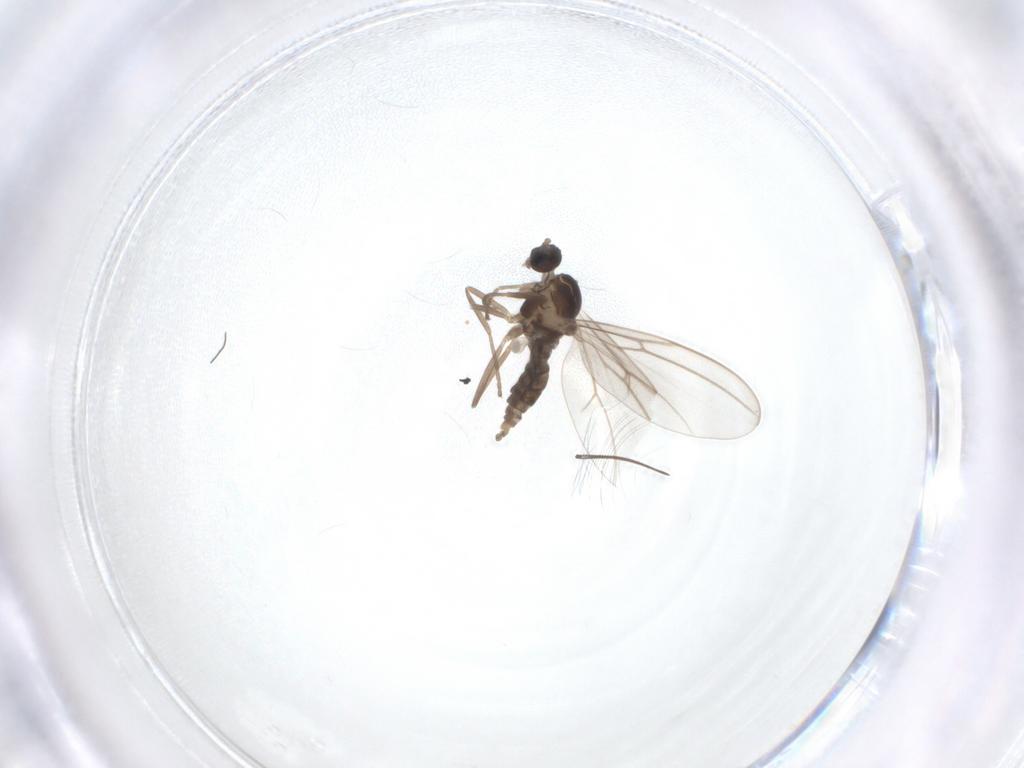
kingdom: Animalia
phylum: Arthropoda
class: Insecta
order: Diptera
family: Cecidomyiidae
